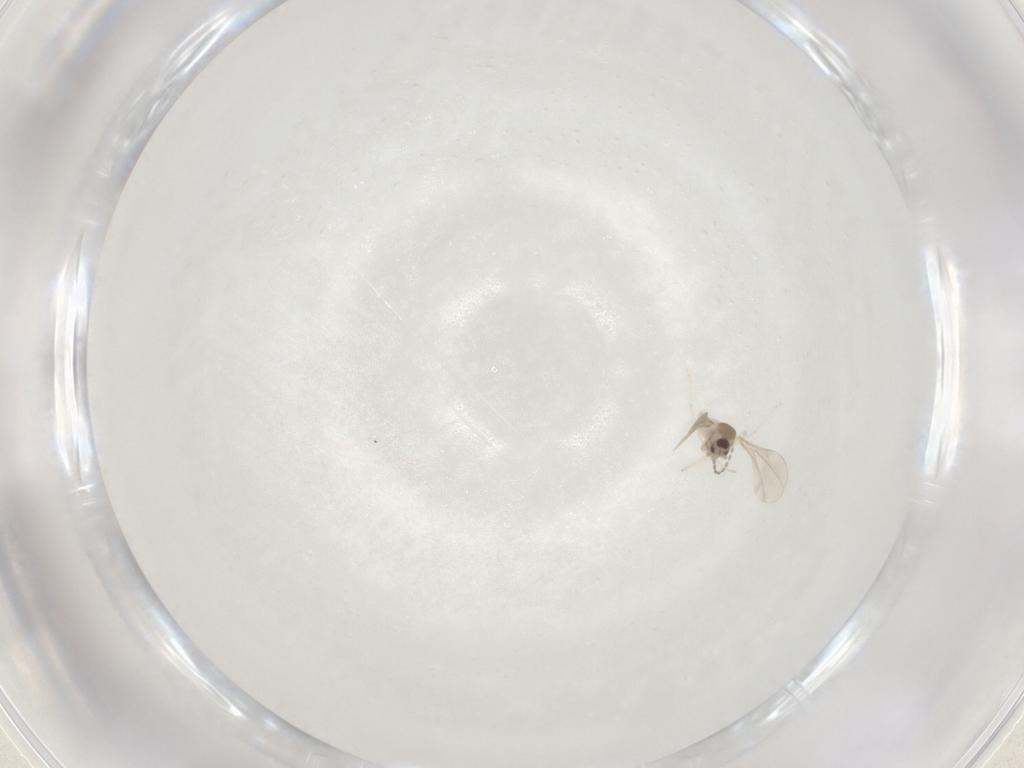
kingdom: Animalia
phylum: Arthropoda
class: Insecta
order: Diptera
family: Cecidomyiidae
